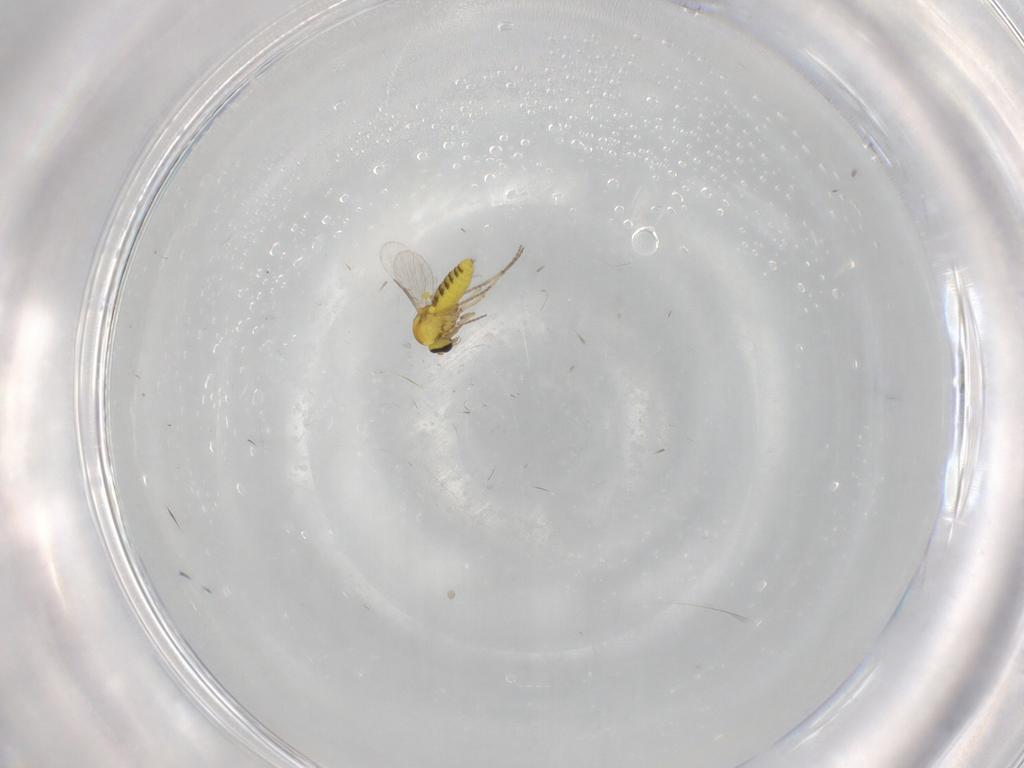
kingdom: Animalia
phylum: Arthropoda
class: Insecta
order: Diptera
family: Ceratopogonidae
